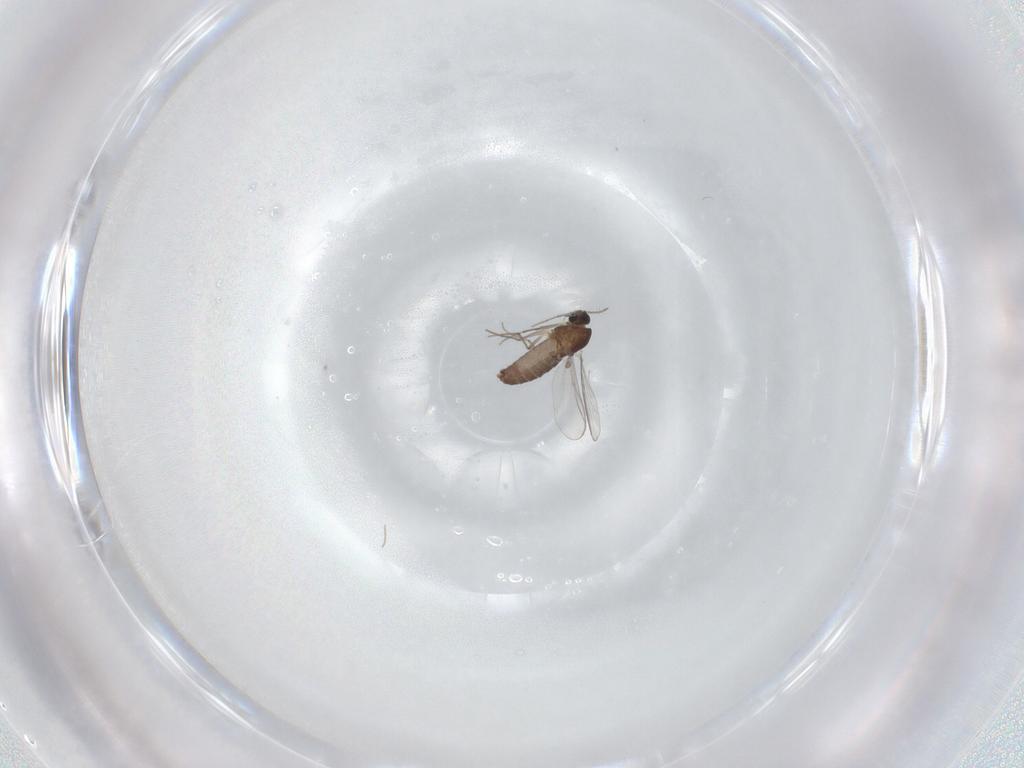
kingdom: Animalia
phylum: Arthropoda
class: Insecta
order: Diptera
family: Chironomidae
